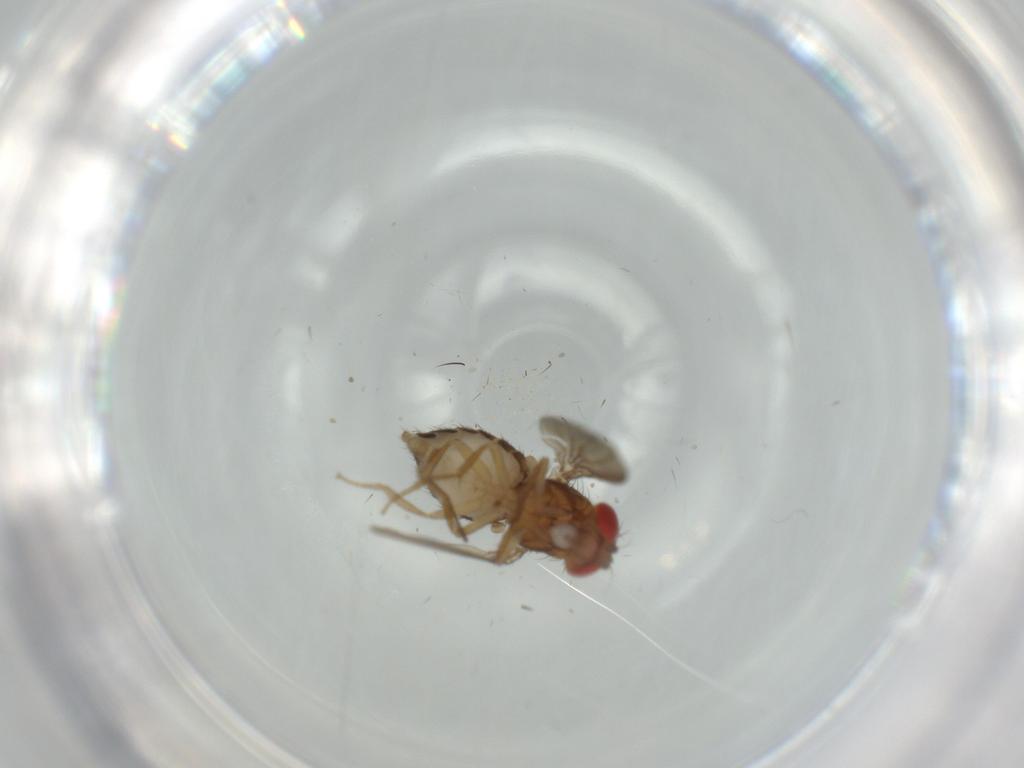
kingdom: Animalia
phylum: Arthropoda
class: Insecta
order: Diptera
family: Drosophilidae
